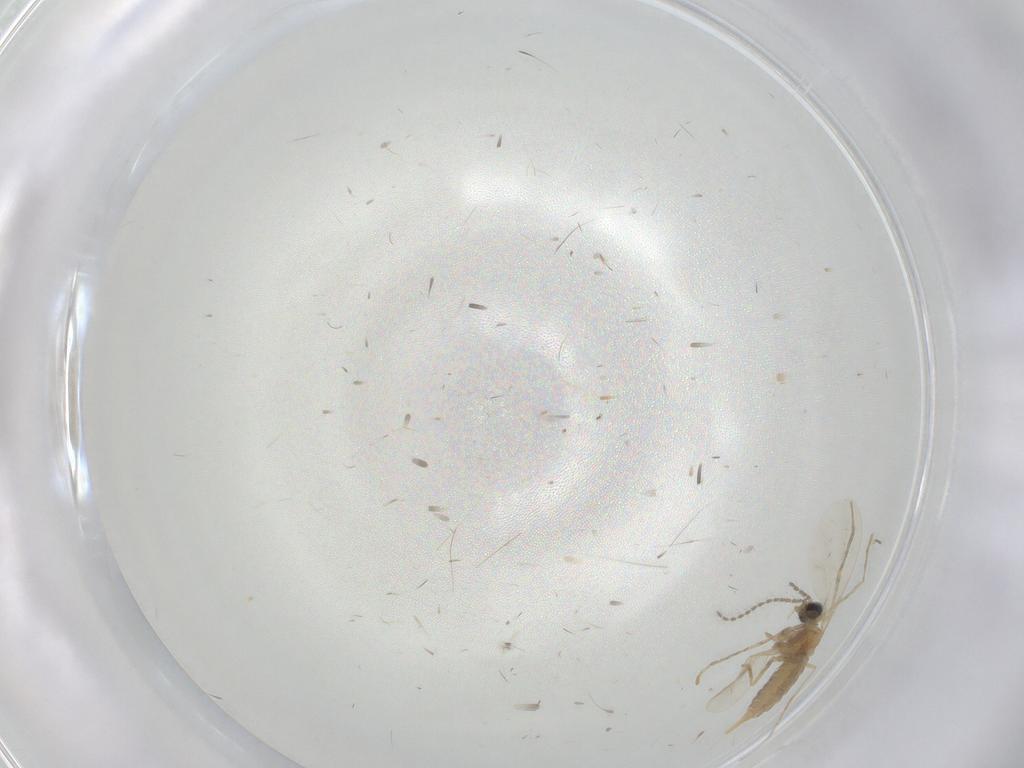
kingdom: Animalia
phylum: Arthropoda
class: Insecta
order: Diptera
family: Cecidomyiidae
